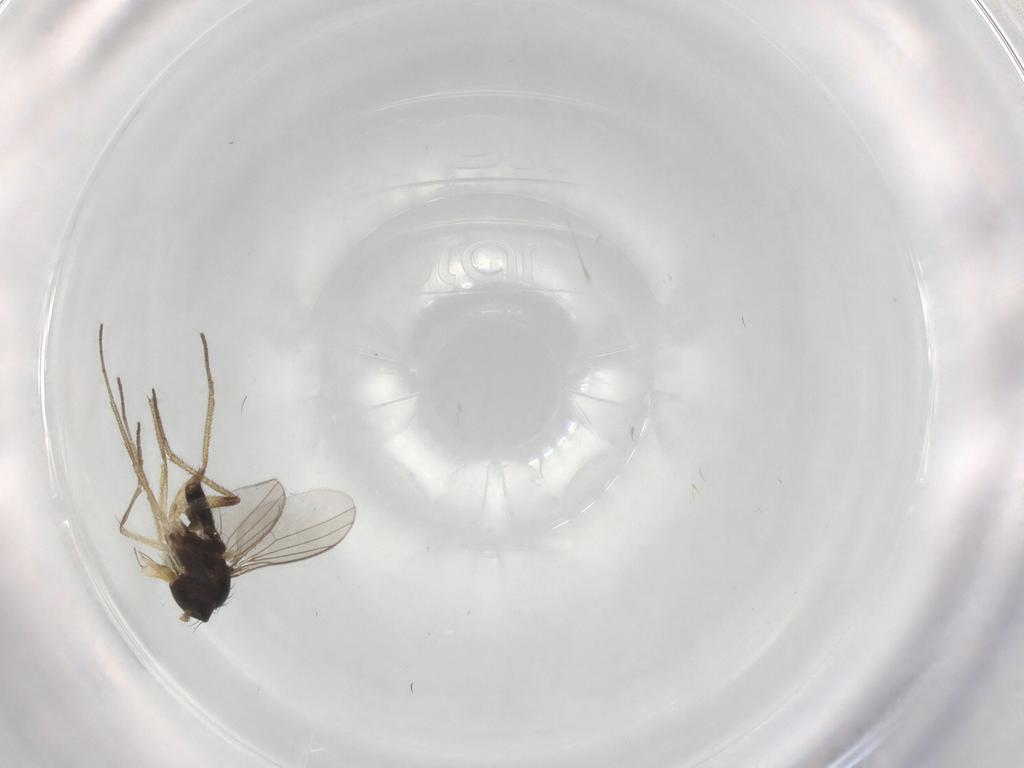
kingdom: Animalia
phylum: Arthropoda
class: Insecta
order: Diptera
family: Dolichopodidae
